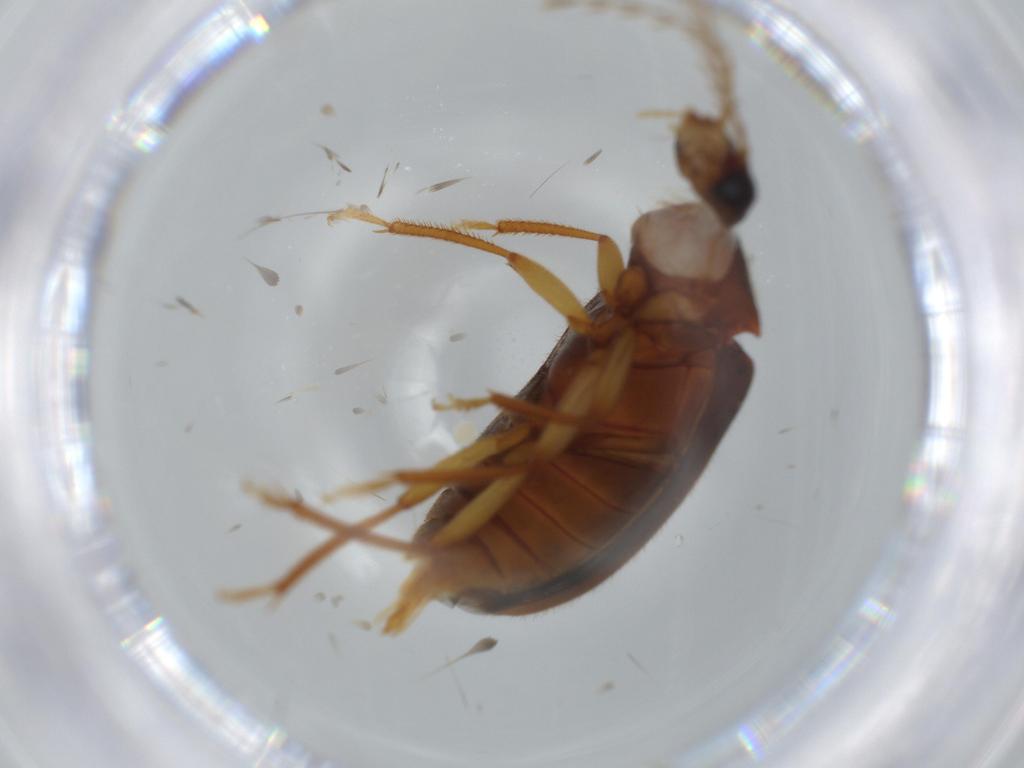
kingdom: Animalia
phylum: Arthropoda
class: Insecta
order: Coleoptera
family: Ptilodactylidae
